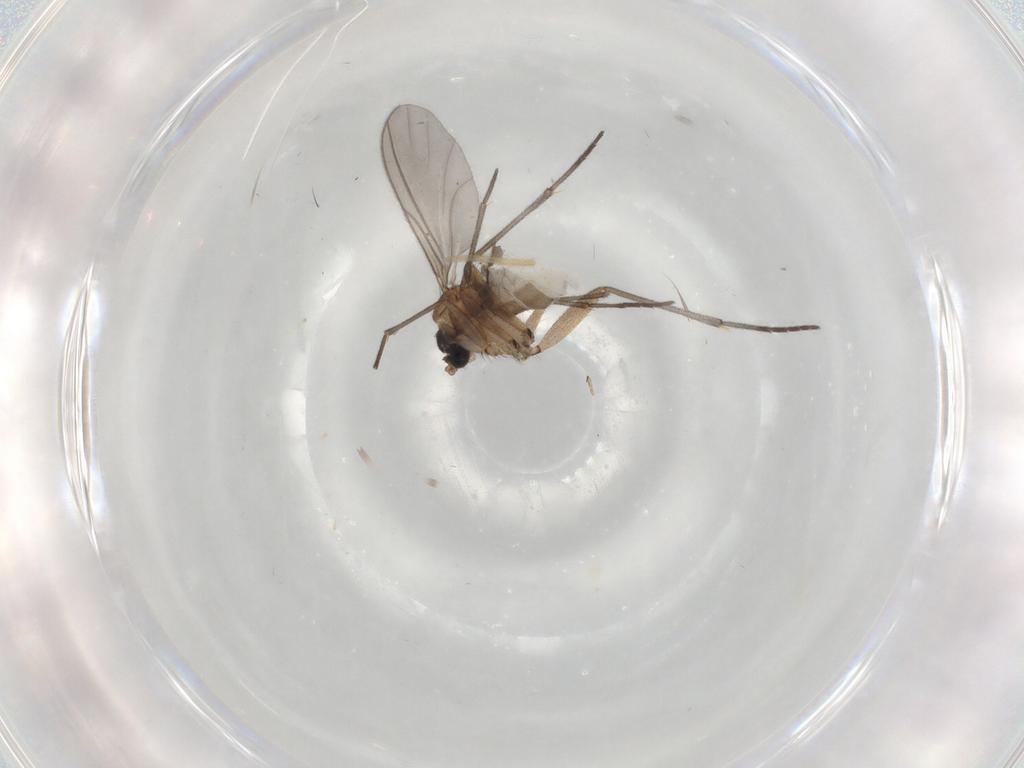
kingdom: Animalia
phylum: Arthropoda
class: Insecta
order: Diptera
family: Sciaridae
